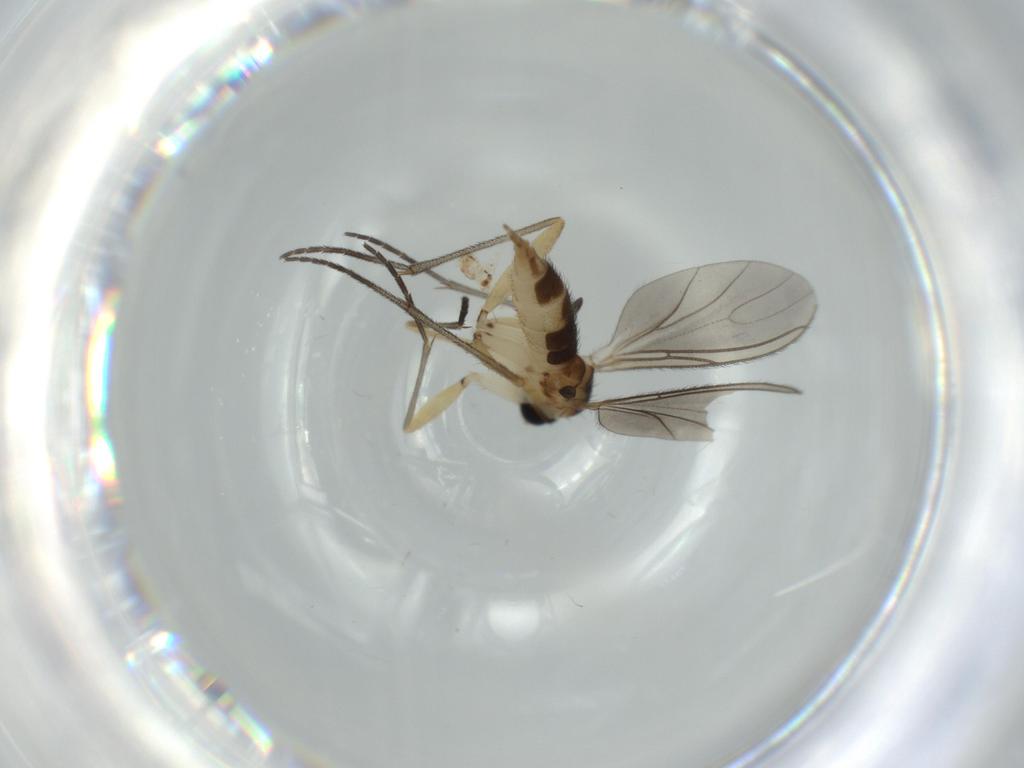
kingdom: Animalia
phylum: Arthropoda
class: Insecta
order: Diptera
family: Sciaridae
